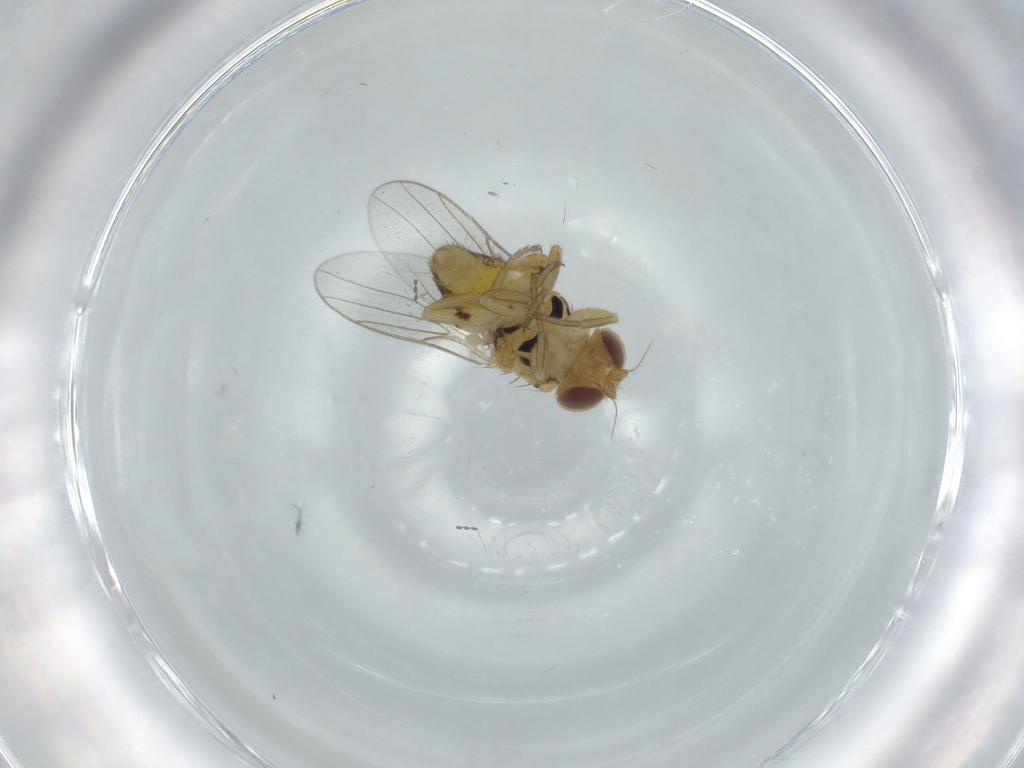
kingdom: Animalia
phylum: Arthropoda
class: Insecta
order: Diptera
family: Chloropidae
